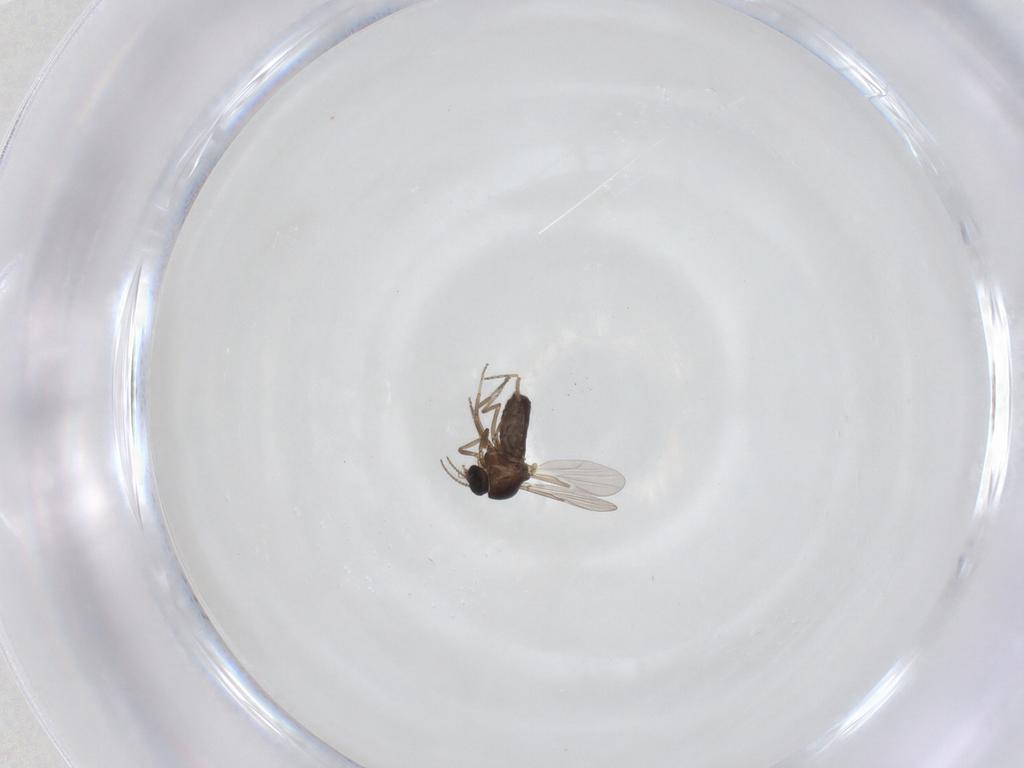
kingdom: Animalia
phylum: Arthropoda
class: Insecta
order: Diptera
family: Ceratopogonidae
